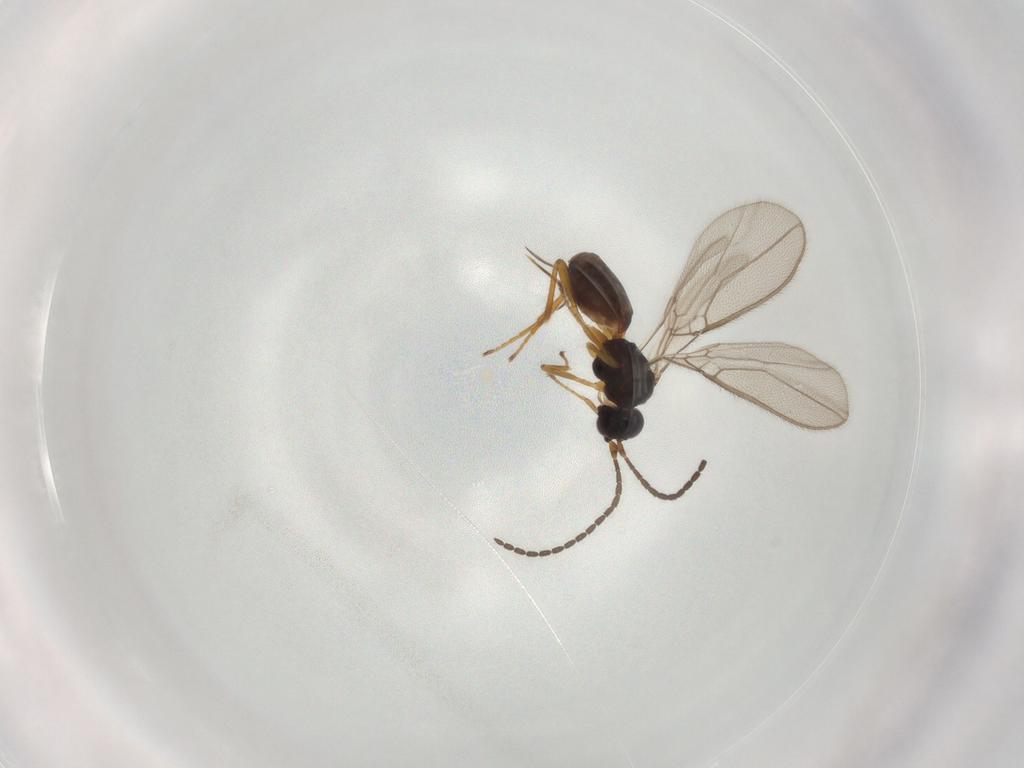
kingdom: Animalia
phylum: Arthropoda
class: Insecta
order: Hymenoptera
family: Braconidae
